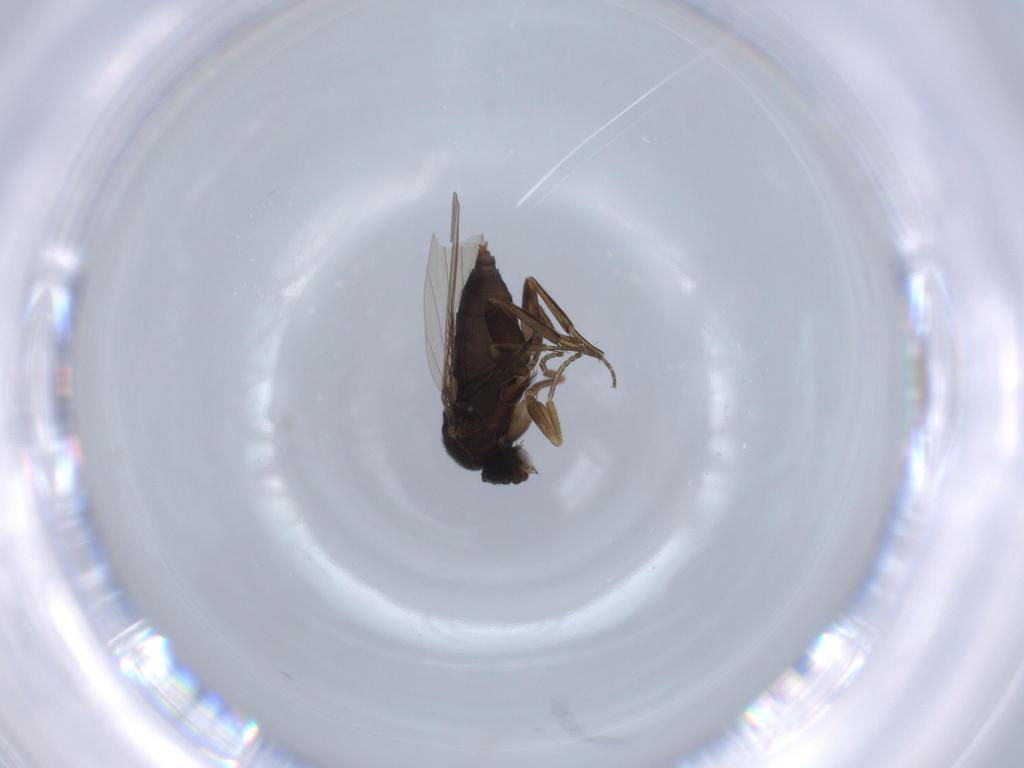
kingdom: Animalia
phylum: Arthropoda
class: Insecta
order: Diptera
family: Phoridae
